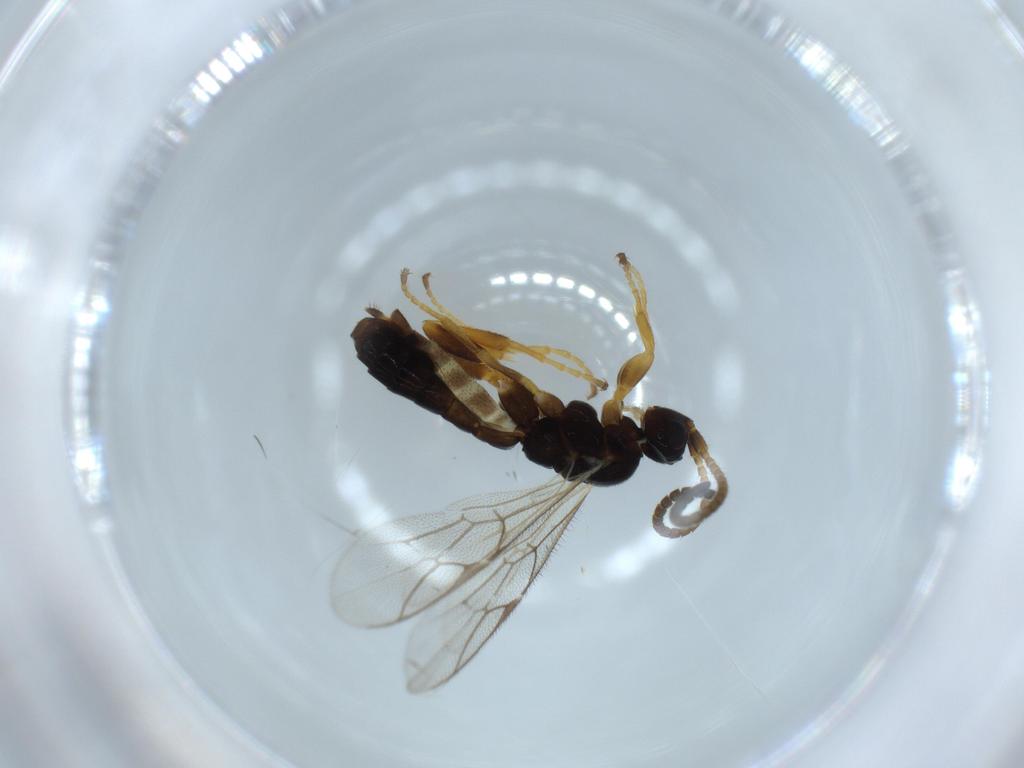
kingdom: Animalia
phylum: Arthropoda
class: Insecta
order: Hymenoptera
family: Ichneumonidae
